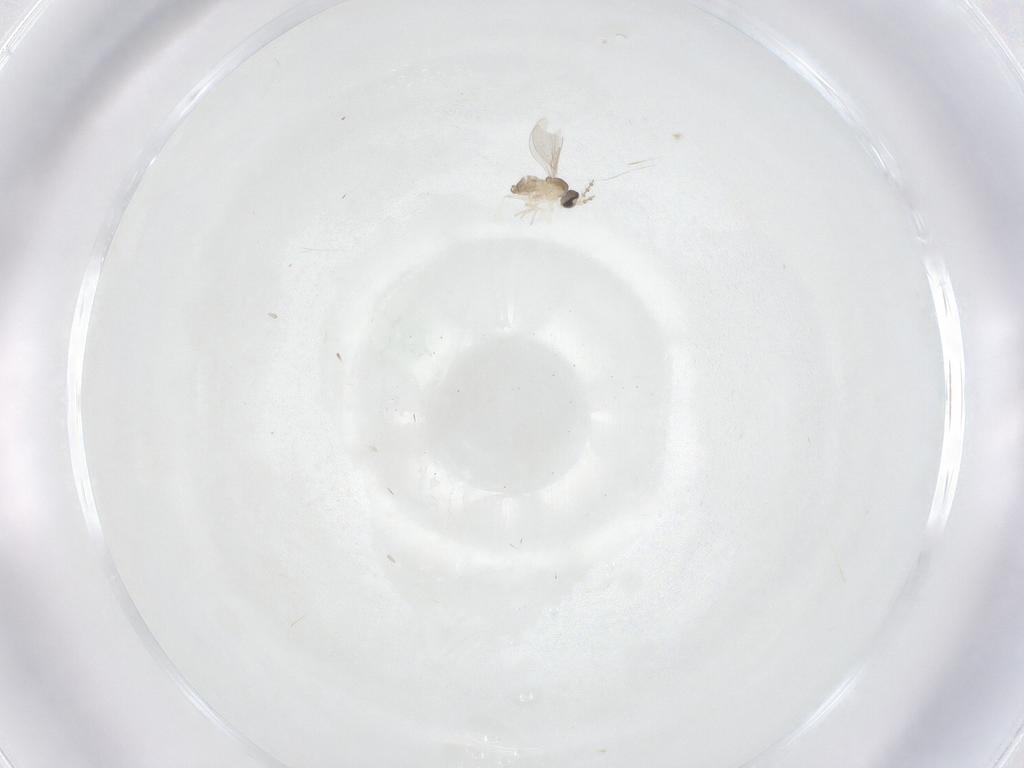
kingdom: Animalia
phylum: Arthropoda
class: Insecta
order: Diptera
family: Cecidomyiidae
